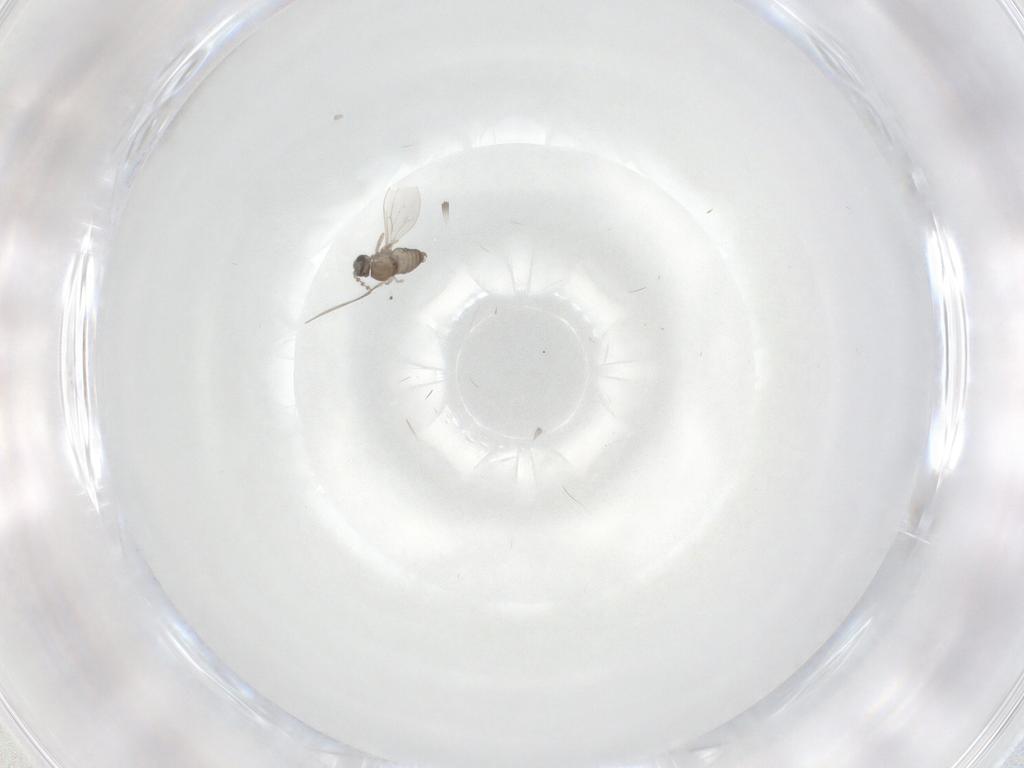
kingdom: Animalia
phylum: Arthropoda
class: Insecta
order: Diptera
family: Cecidomyiidae
